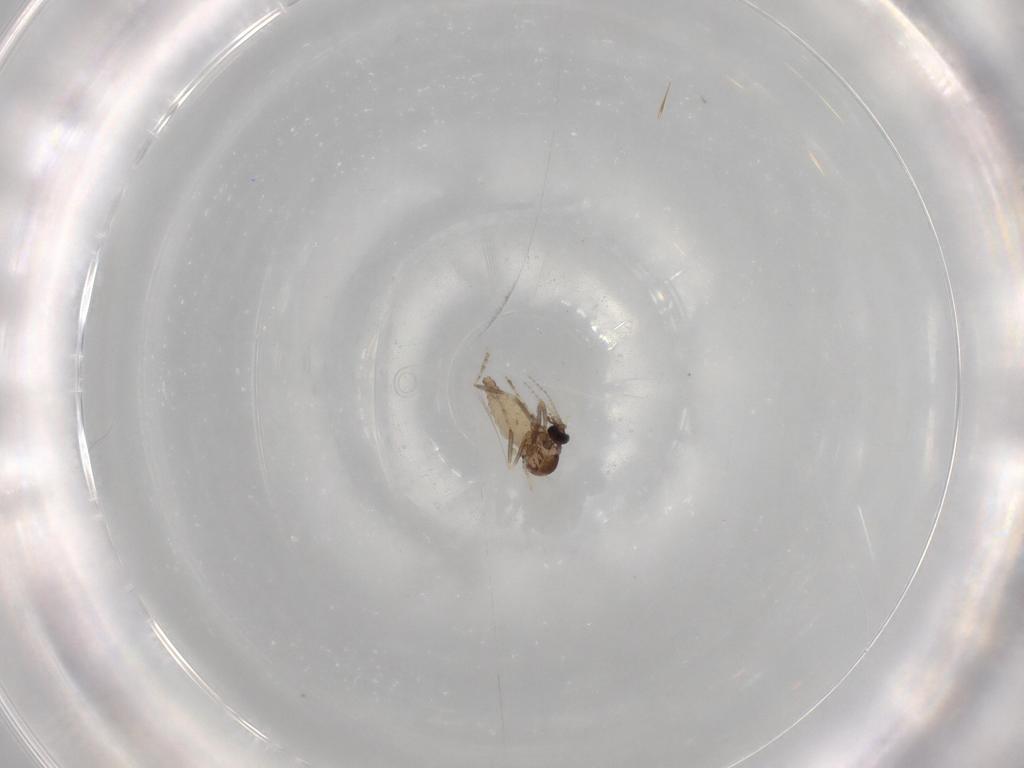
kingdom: Animalia
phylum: Arthropoda
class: Insecta
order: Diptera
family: Ceratopogonidae
